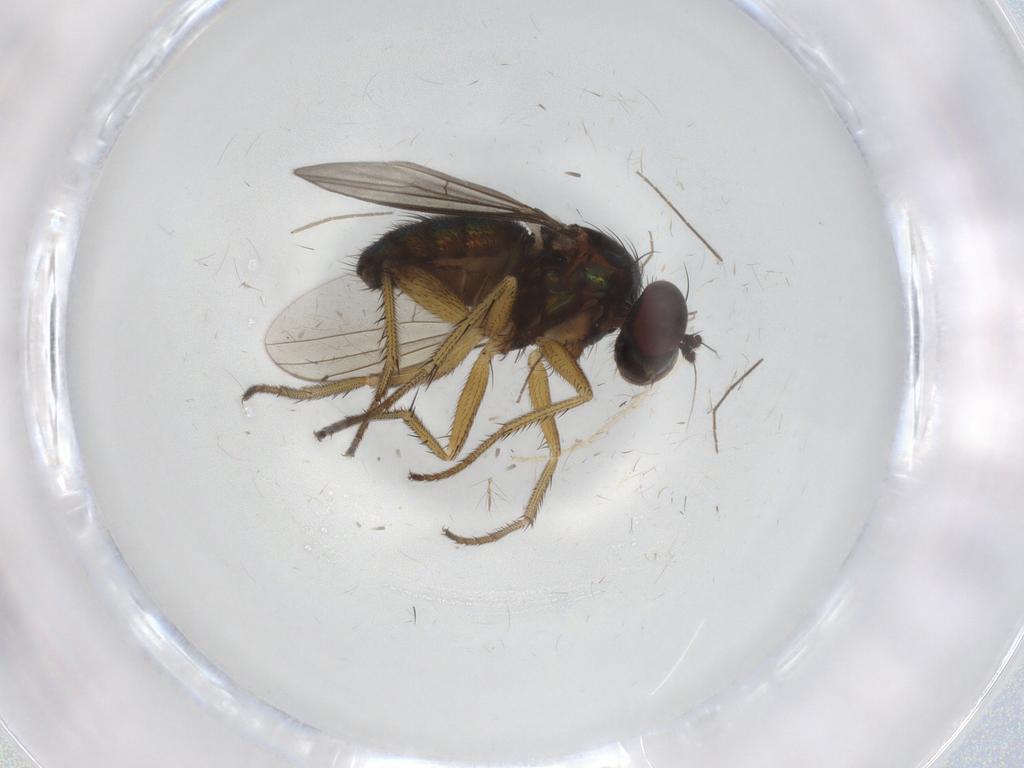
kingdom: Animalia
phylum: Arthropoda
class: Insecta
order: Diptera
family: Dolichopodidae
